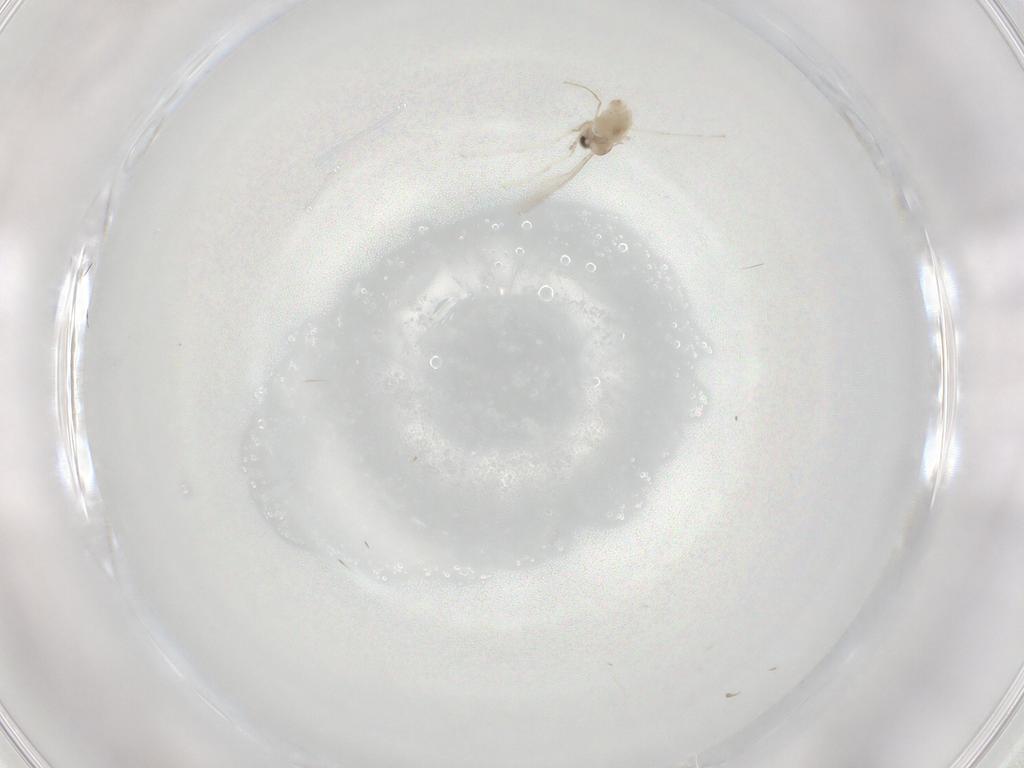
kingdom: Animalia
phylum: Arthropoda
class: Insecta
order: Diptera
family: Cecidomyiidae
